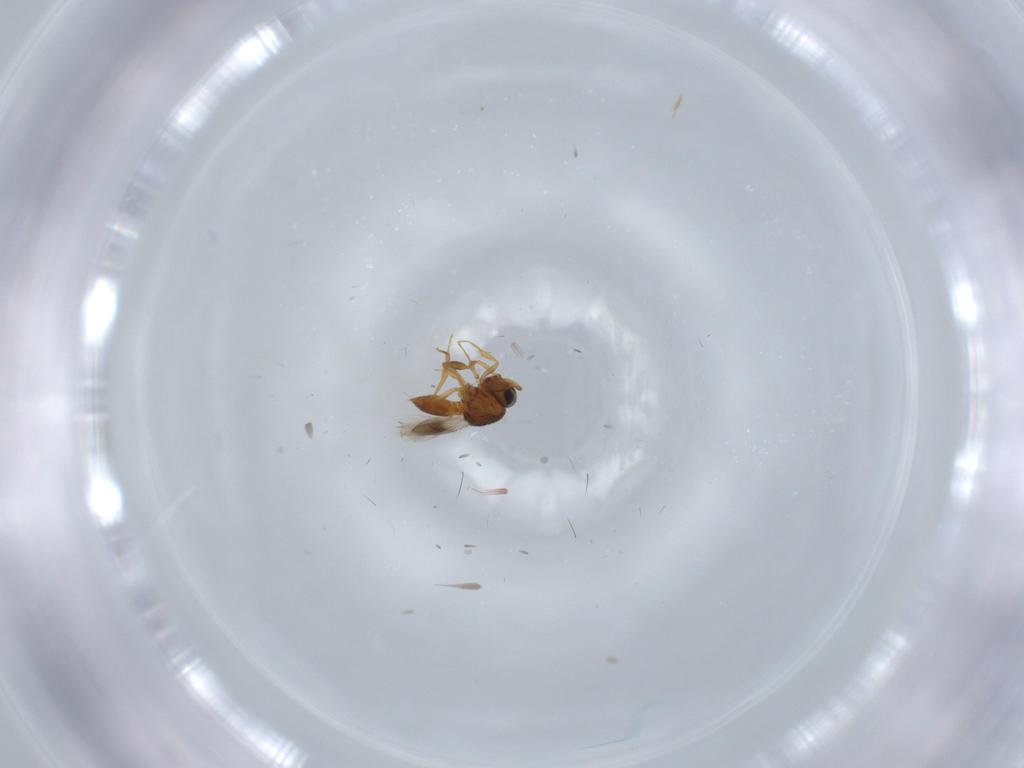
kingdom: Animalia
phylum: Arthropoda
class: Insecta
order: Hymenoptera
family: Scelionidae
